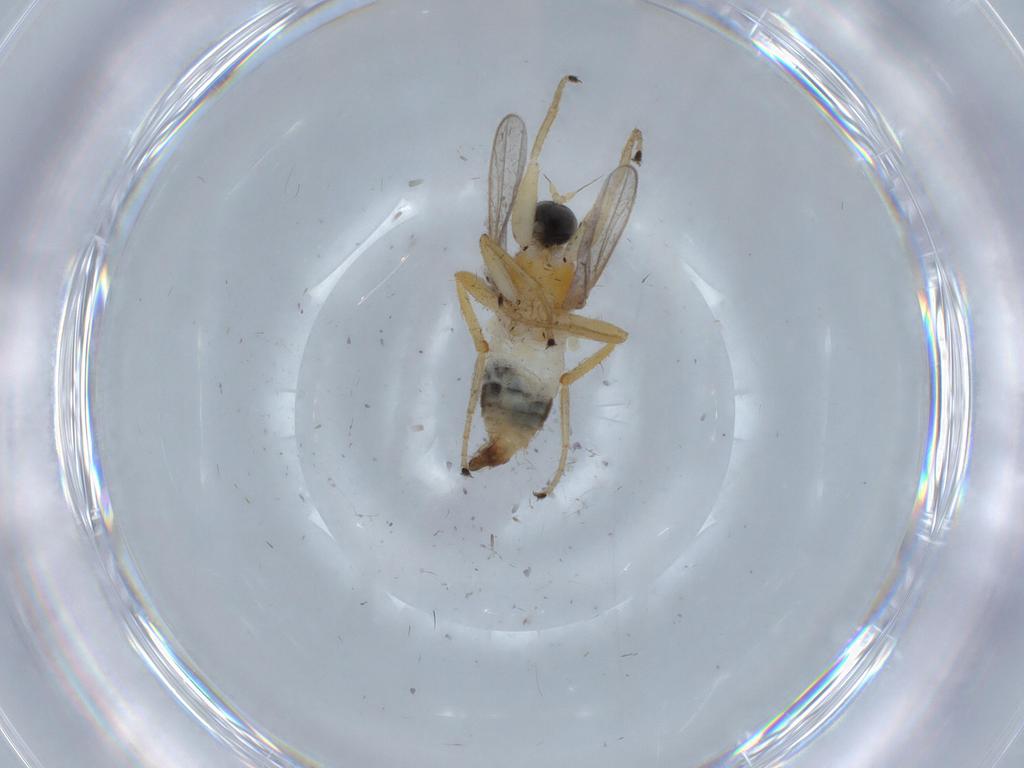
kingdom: Animalia
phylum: Arthropoda
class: Insecta
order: Diptera
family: Hybotidae
